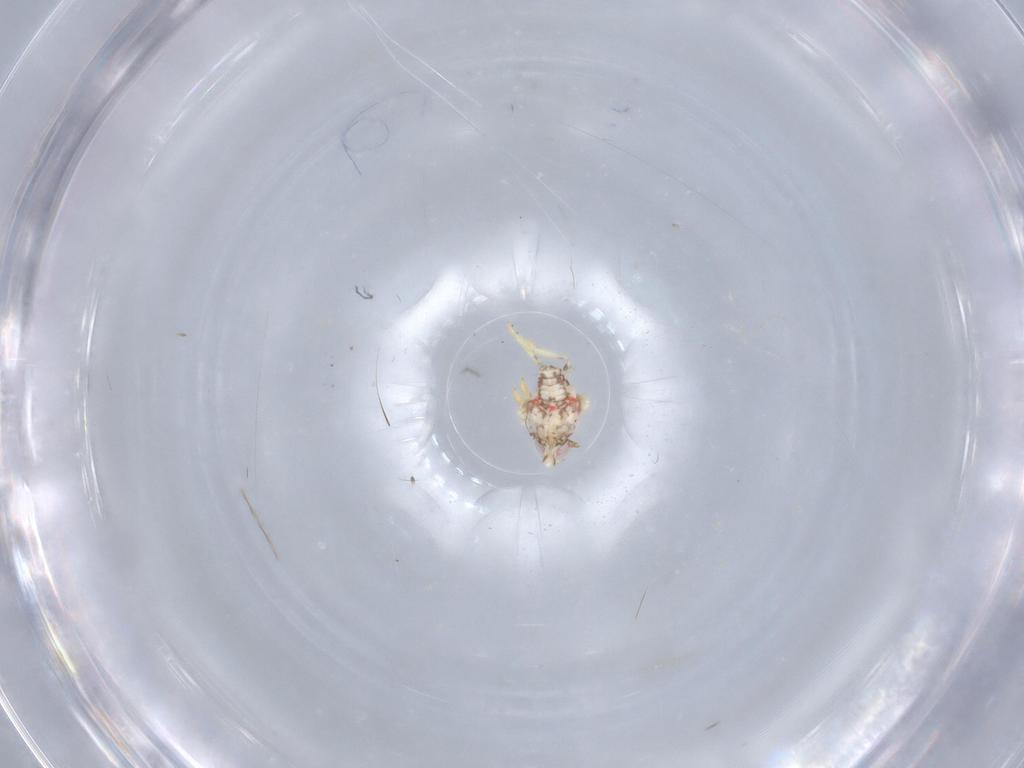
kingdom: Animalia
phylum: Arthropoda
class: Insecta
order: Hemiptera
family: Nogodinidae
